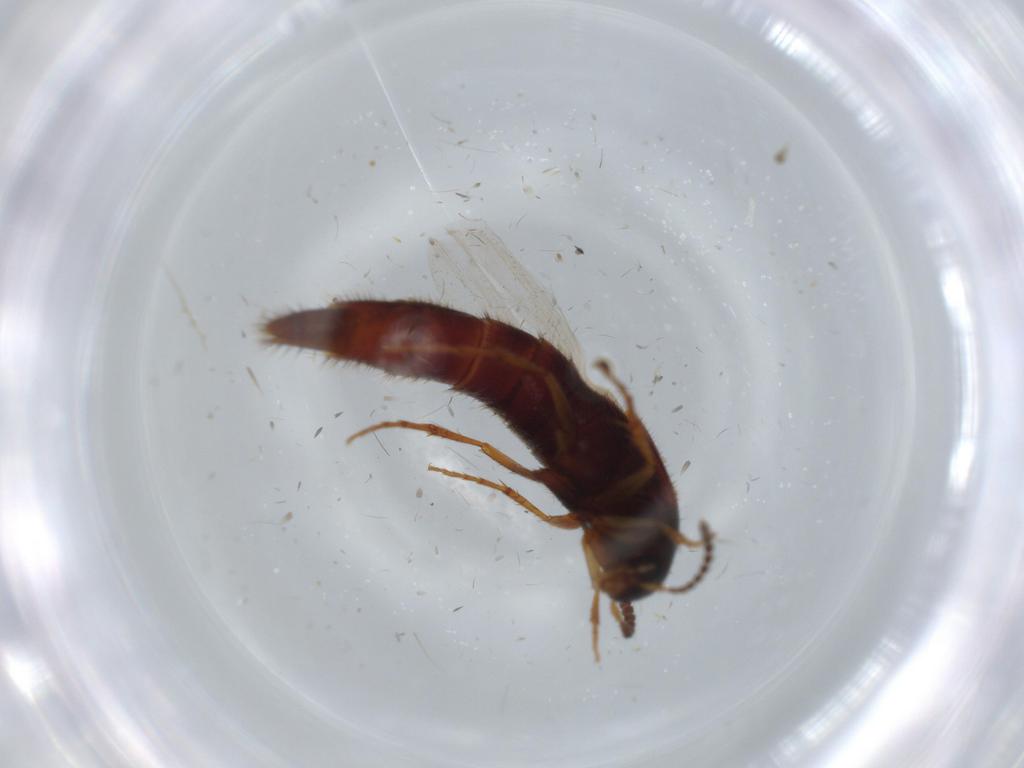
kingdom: Animalia
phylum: Arthropoda
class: Insecta
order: Coleoptera
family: Staphylinidae
